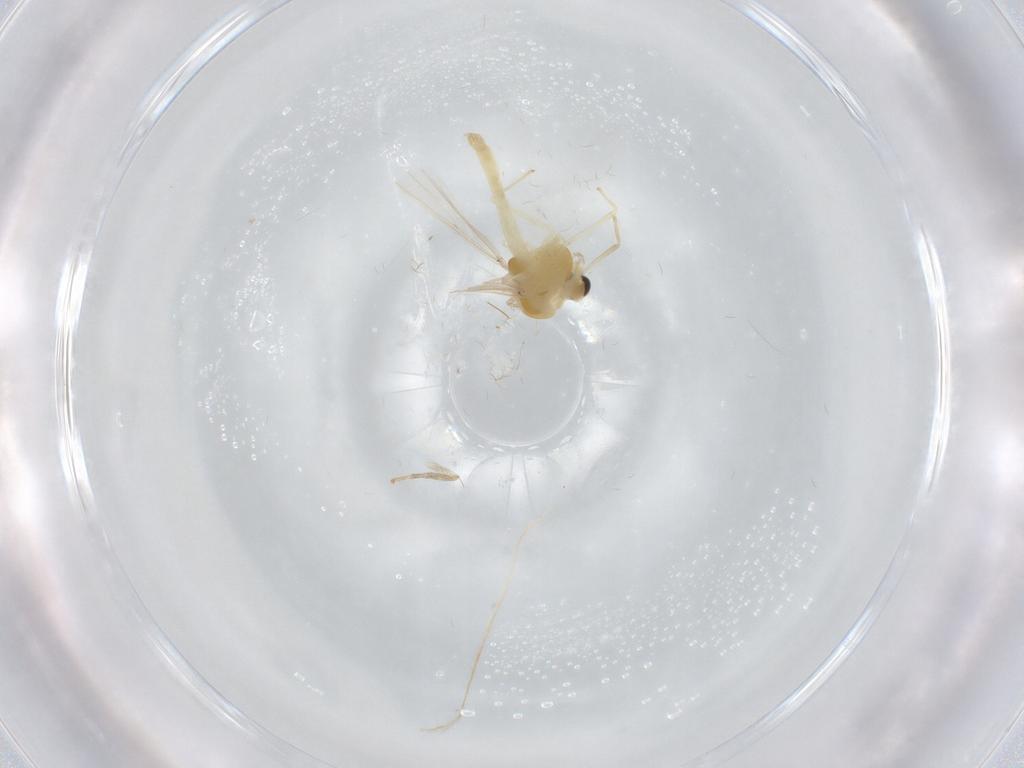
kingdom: Animalia
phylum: Arthropoda
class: Insecta
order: Diptera
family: Chironomidae
